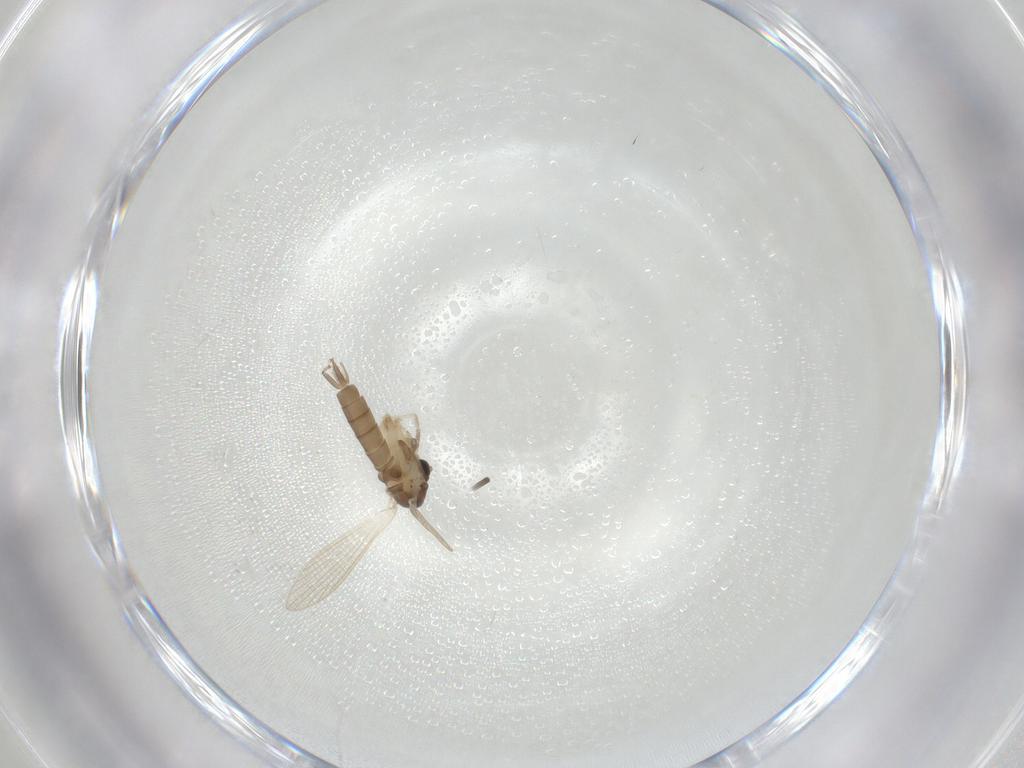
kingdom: Animalia
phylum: Arthropoda
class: Insecta
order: Diptera
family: Psychodidae
